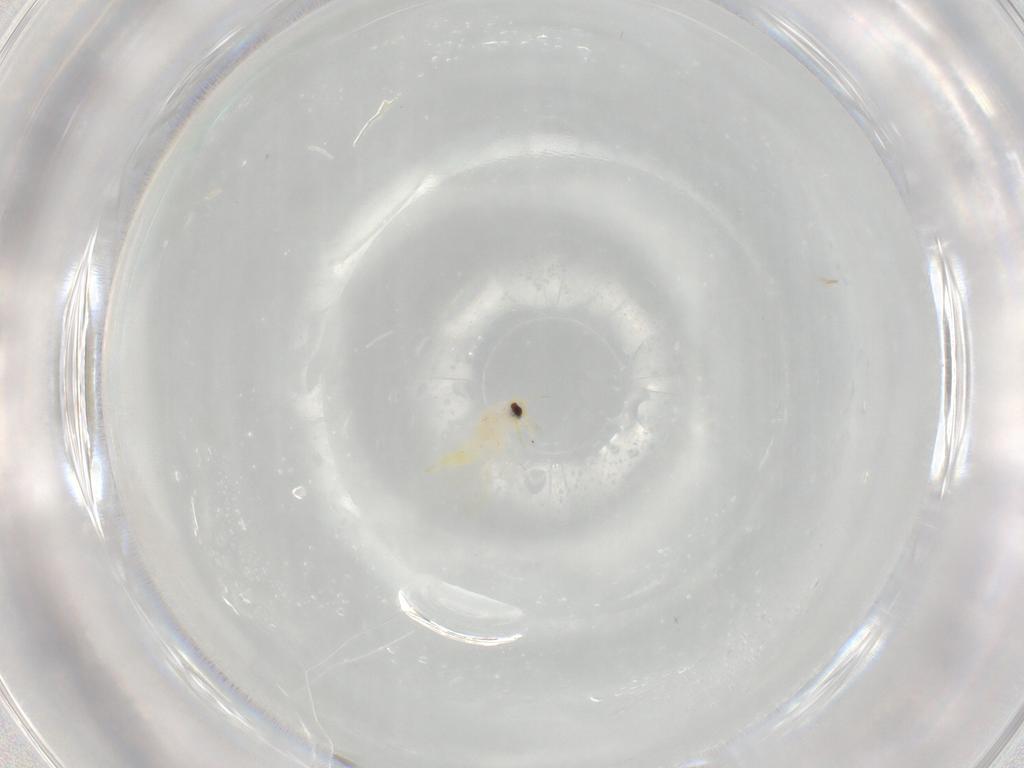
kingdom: Animalia
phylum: Arthropoda
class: Insecta
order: Hemiptera
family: Aleyrodidae
